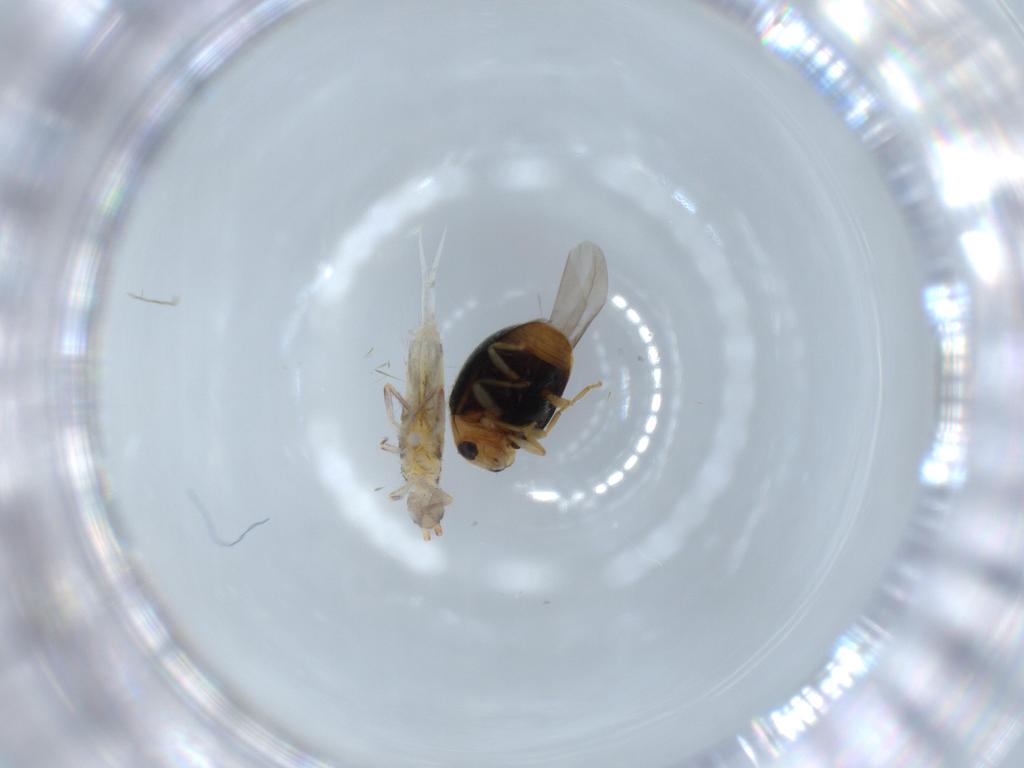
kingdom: Animalia
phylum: Arthropoda
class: Collembola
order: Entomobryomorpha
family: Entomobryidae
